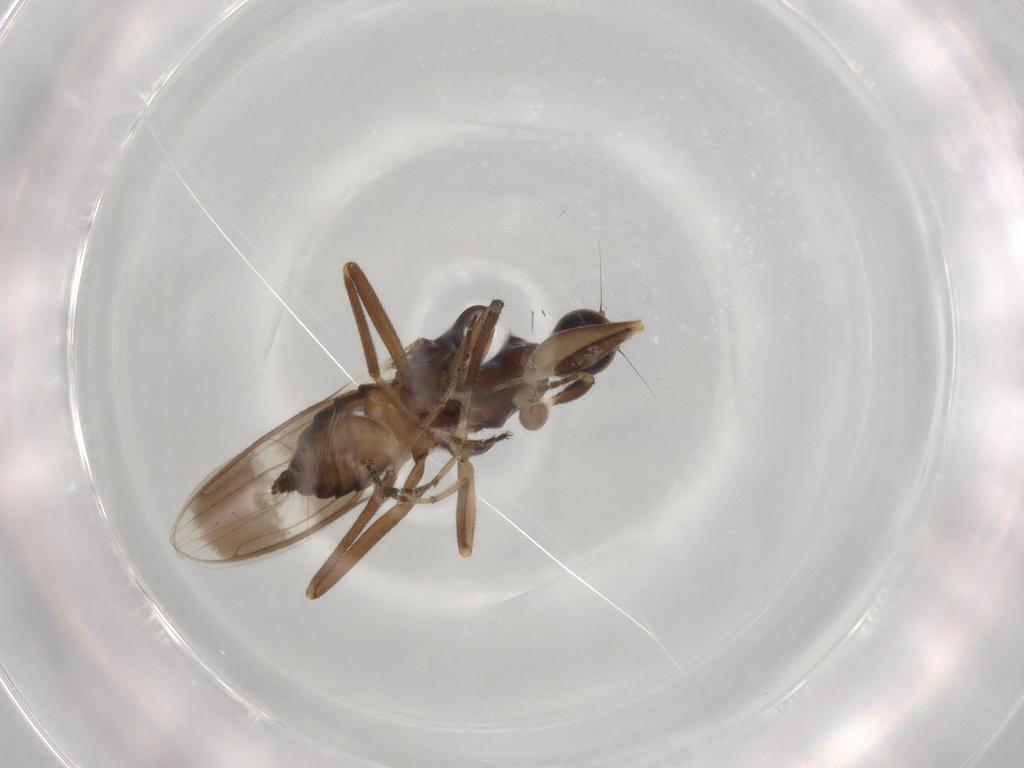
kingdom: Animalia
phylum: Arthropoda
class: Insecta
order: Diptera
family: Hybotidae
